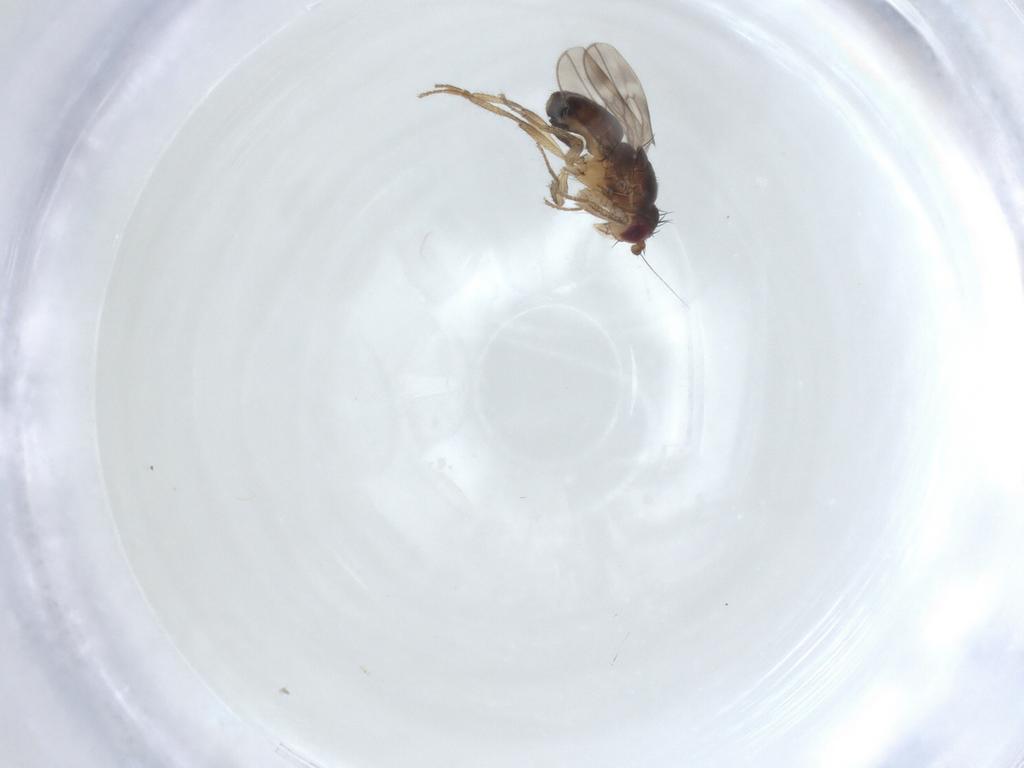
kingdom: Animalia
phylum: Arthropoda
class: Insecta
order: Diptera
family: Sphaeroceridae
